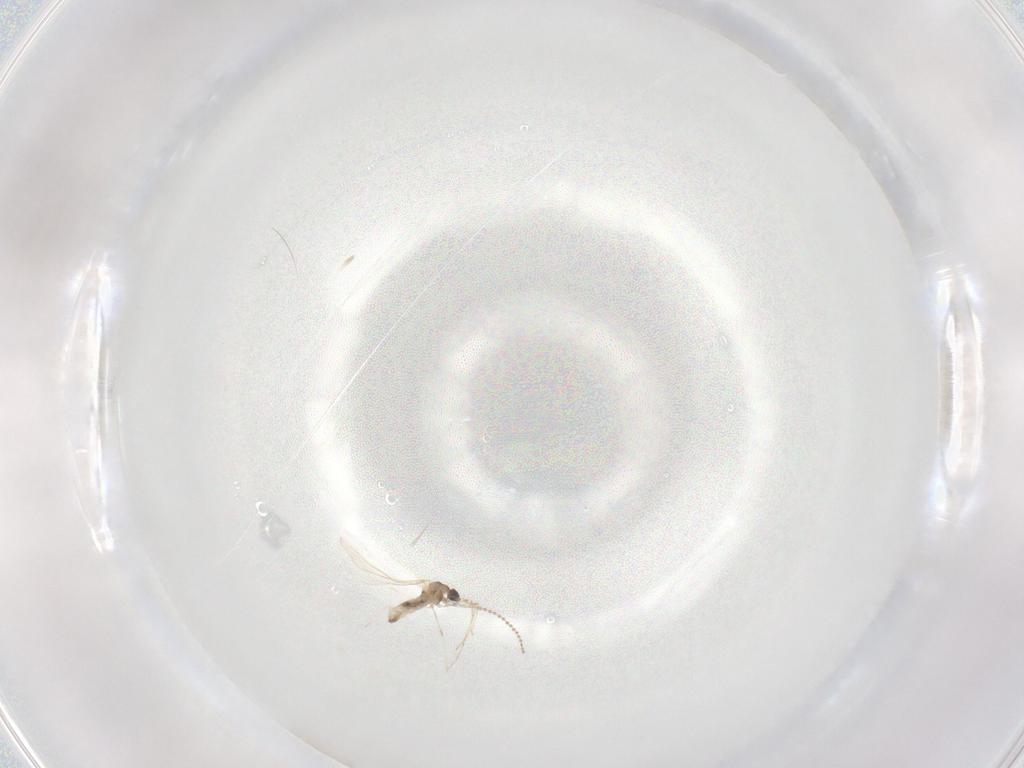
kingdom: Animalia
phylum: Arthropoda
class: Insecta
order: Diptera
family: Cecidomyiidae
